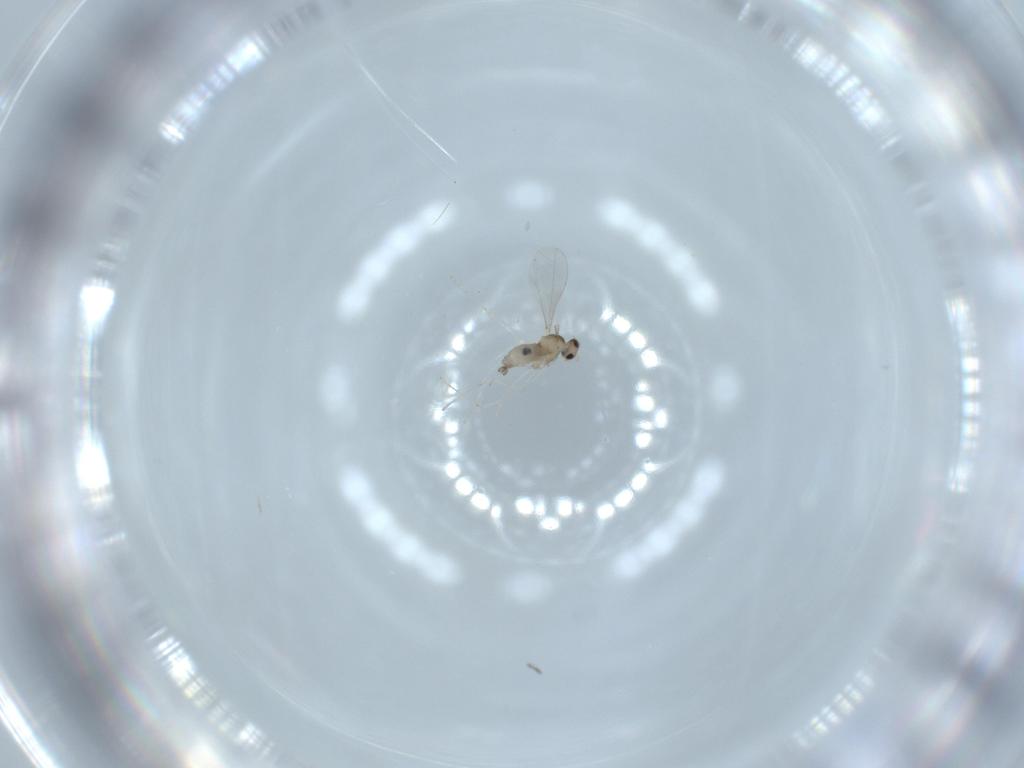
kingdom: Animalia
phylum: Arthropoda
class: Insecta
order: Diptera
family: Cecidomyiidae
